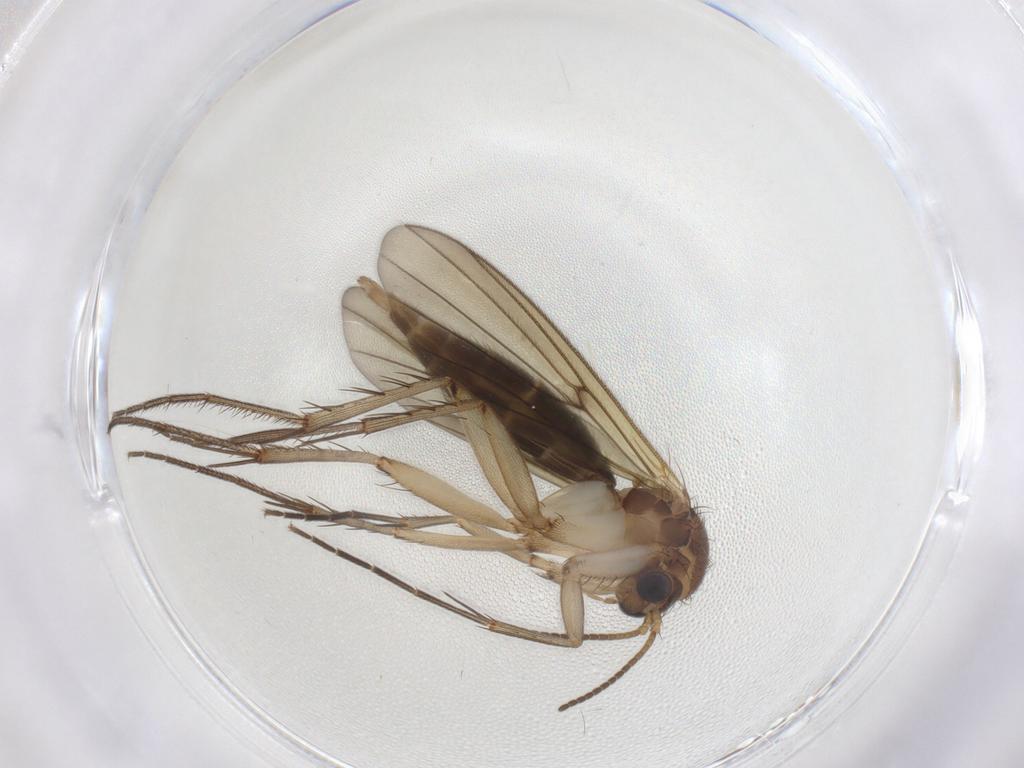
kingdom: Animalia
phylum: Arthropoda
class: Insecta
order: Diptera
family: Mycetophilidae
